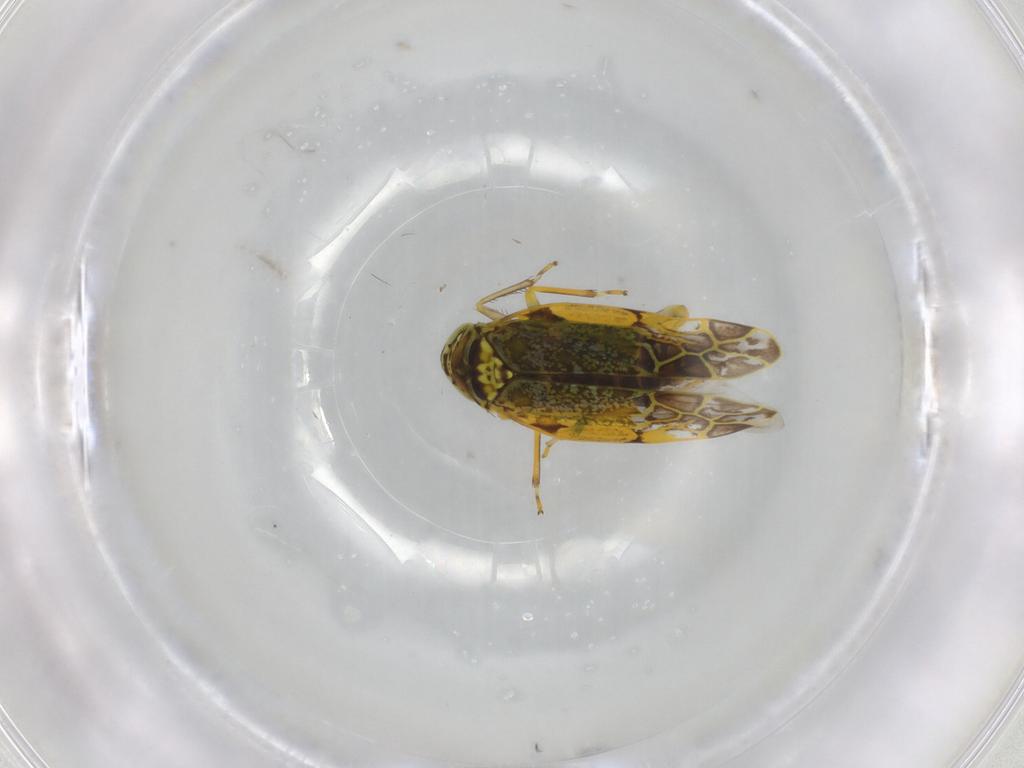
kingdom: Animalia
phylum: Arthropoda
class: Insecta
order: Hemiptera
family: Cicadellidae
